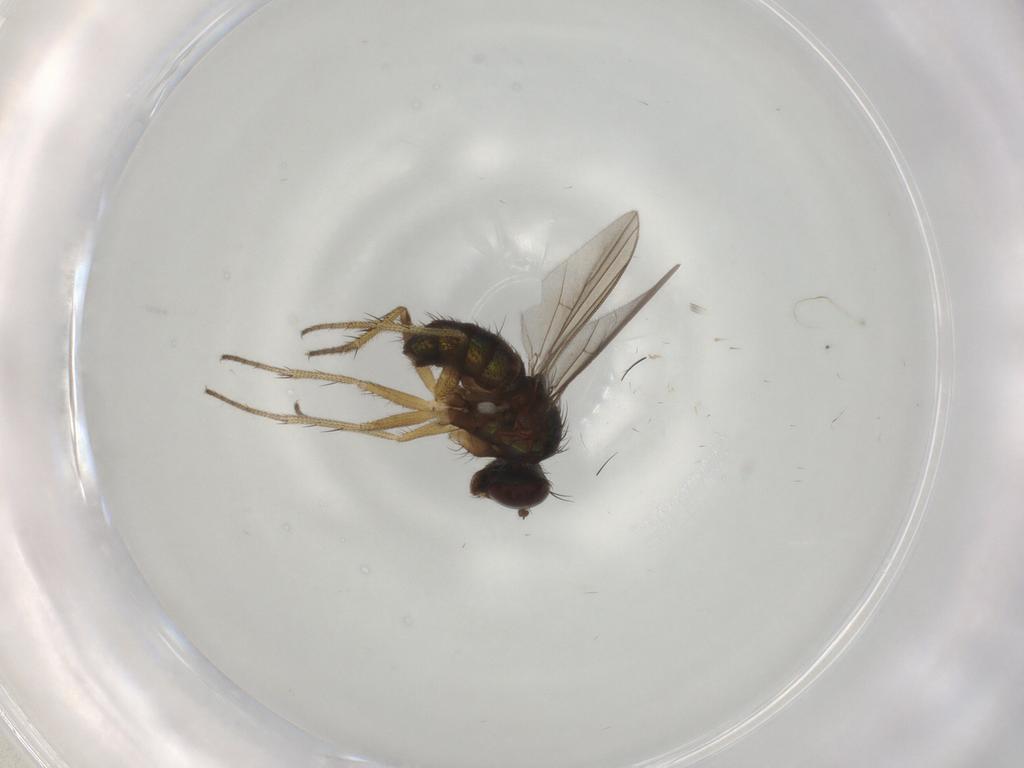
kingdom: Animalia
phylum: Arthropoda
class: Insecta
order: Diptera
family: Dolichopodidae
